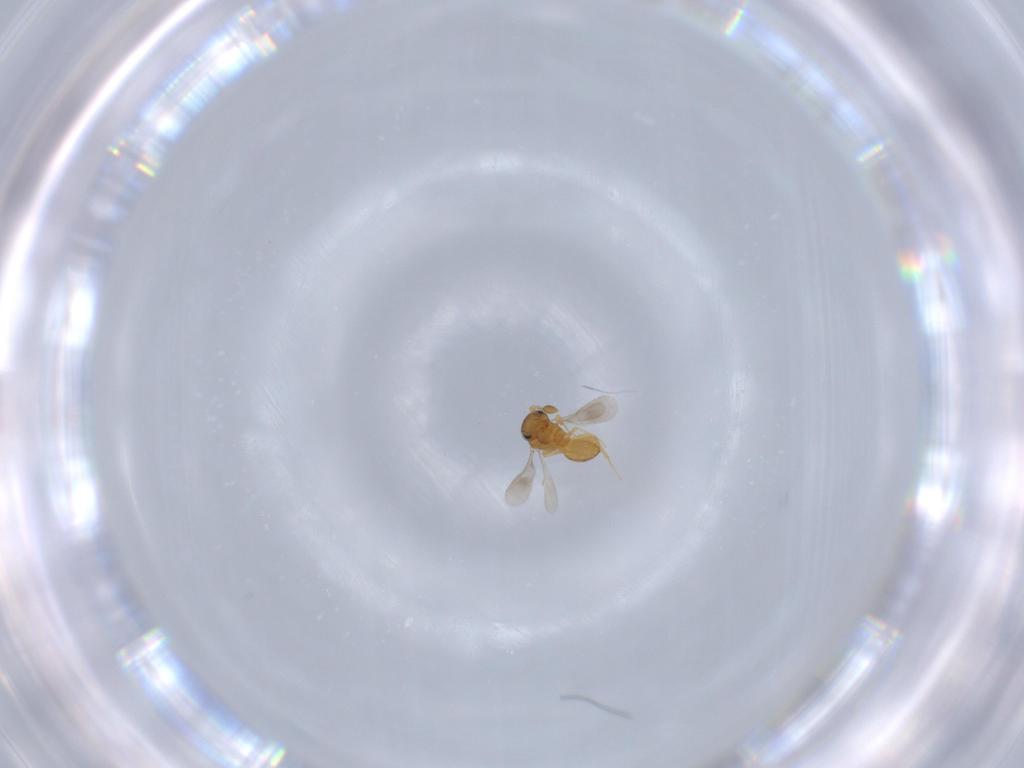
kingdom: Animalia
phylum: Arthropoda
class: Insecta
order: Hymenoptera
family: Scelionidae
